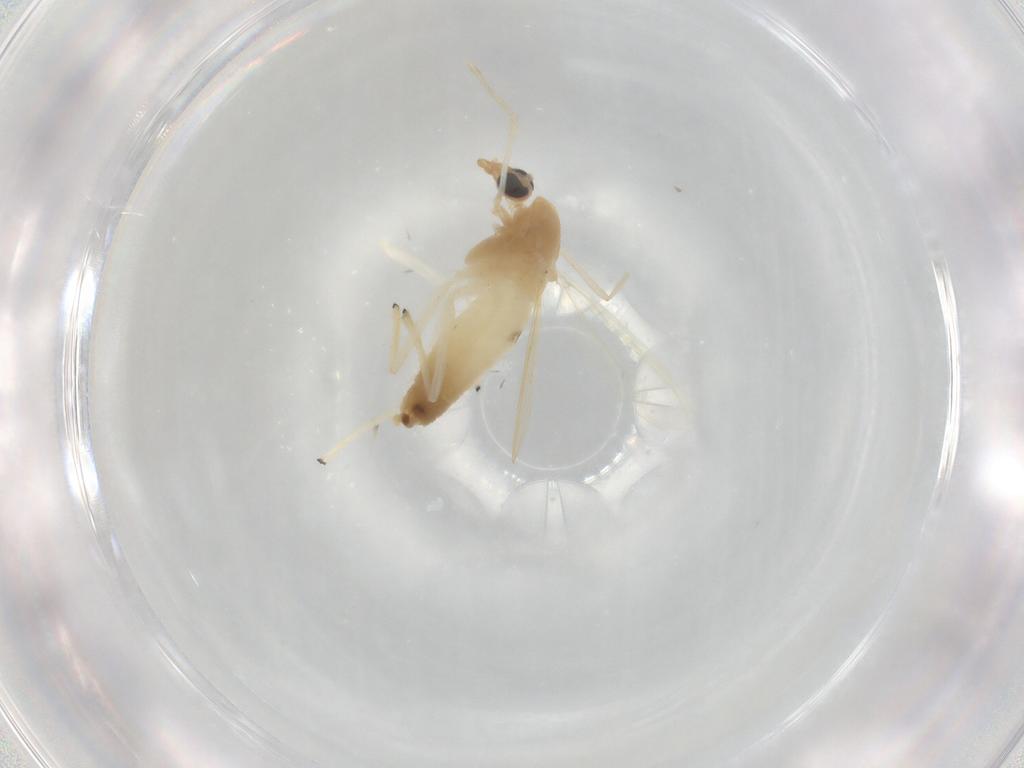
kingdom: Animalia
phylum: Arthropoda
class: Insecta
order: Diptera
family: Chironomidae
